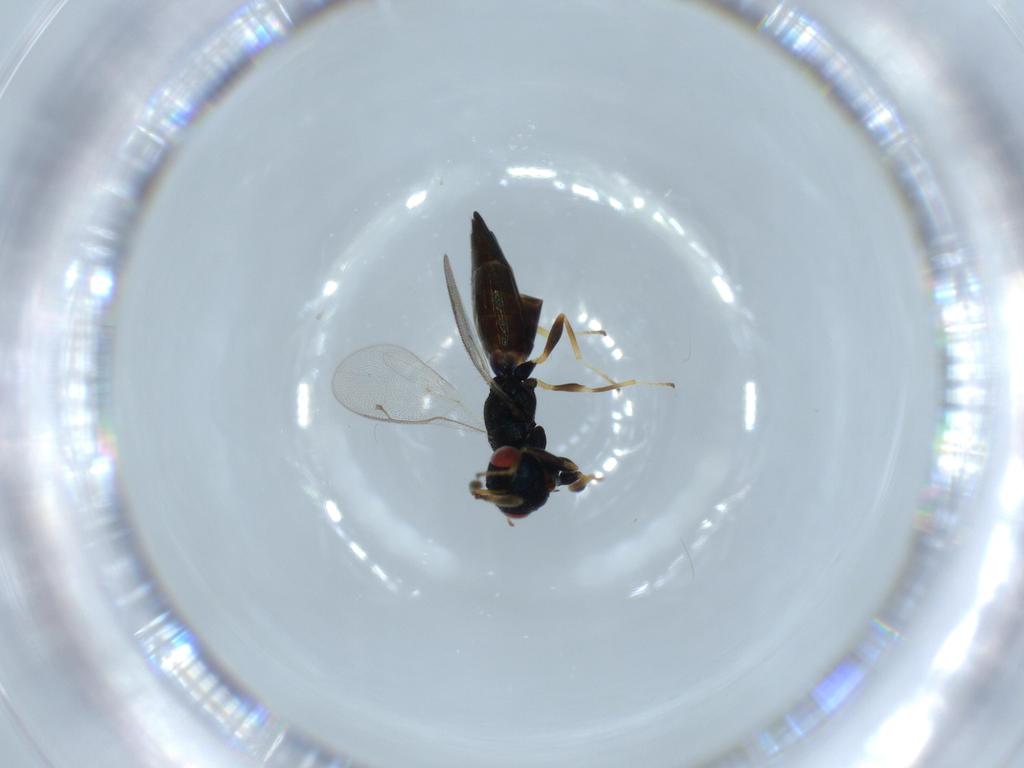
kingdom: Animalia
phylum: Arthropoda
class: Insecta
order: Hymenoptera
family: Pteromalidae
